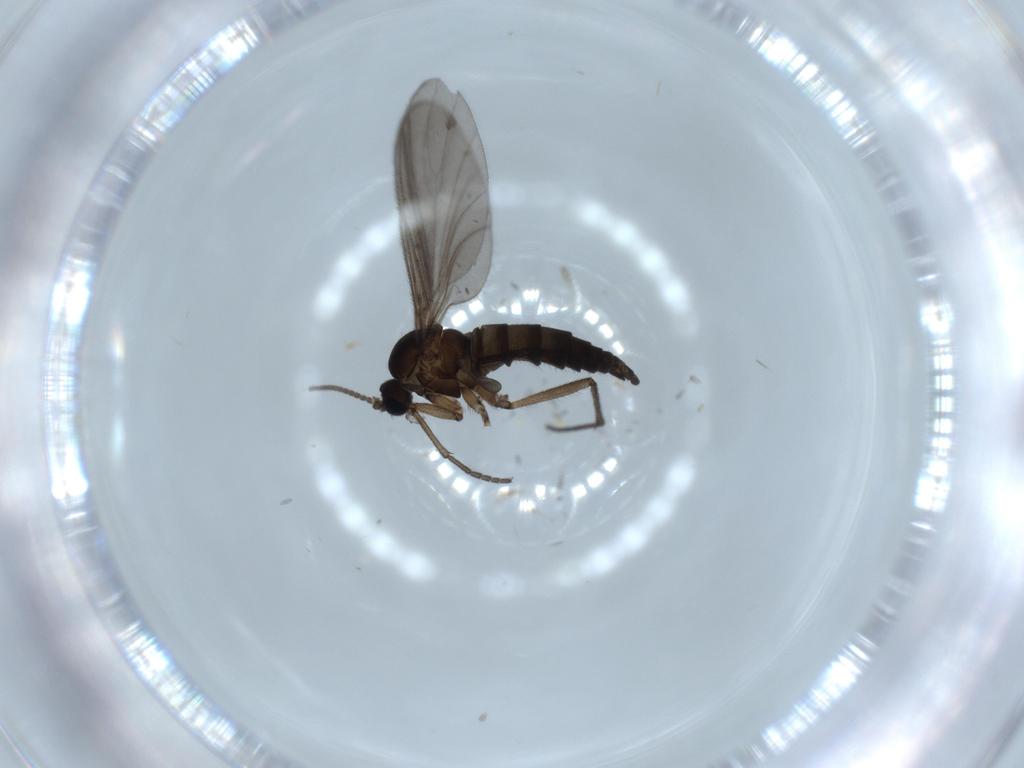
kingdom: Animalia
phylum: Arthropoda
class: Insecta
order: Diptera
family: Sciaridae
